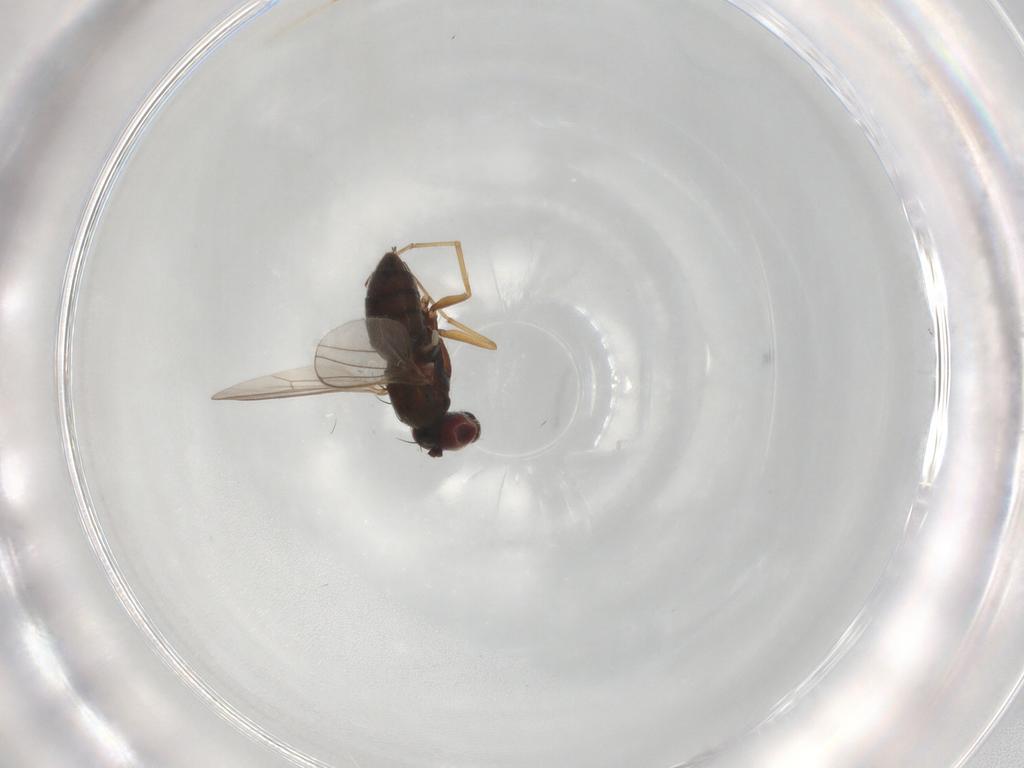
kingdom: Animalia
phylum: Arthropoda
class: Insecta
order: Diptera
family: Dolichopodidae
